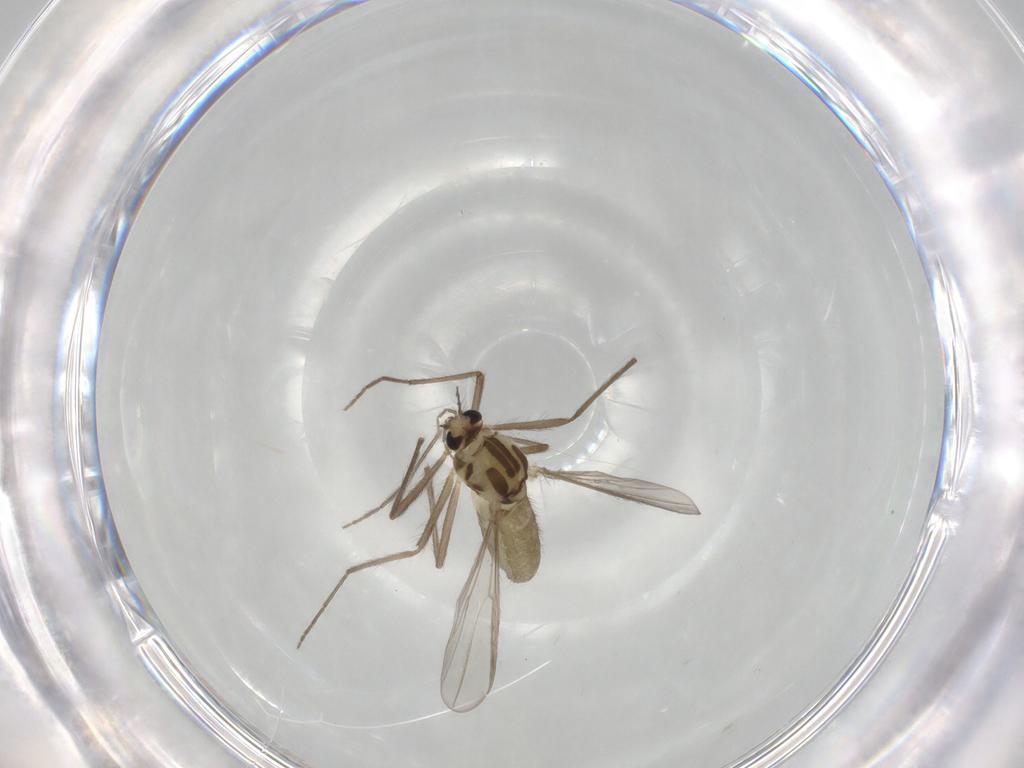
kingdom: Animalia
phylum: Arthropoda
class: Insecta
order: Diptera
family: Chironomidae
